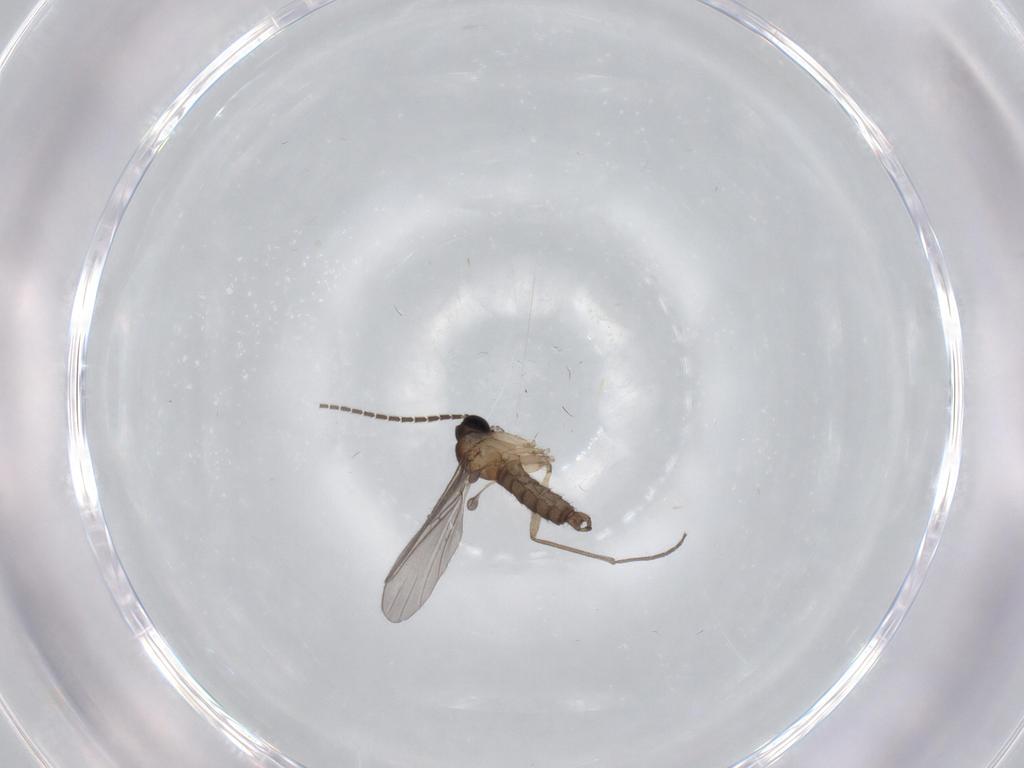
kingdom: Animalia
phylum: Arthropoda
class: Insecta
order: Diptera
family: Sciaridae
